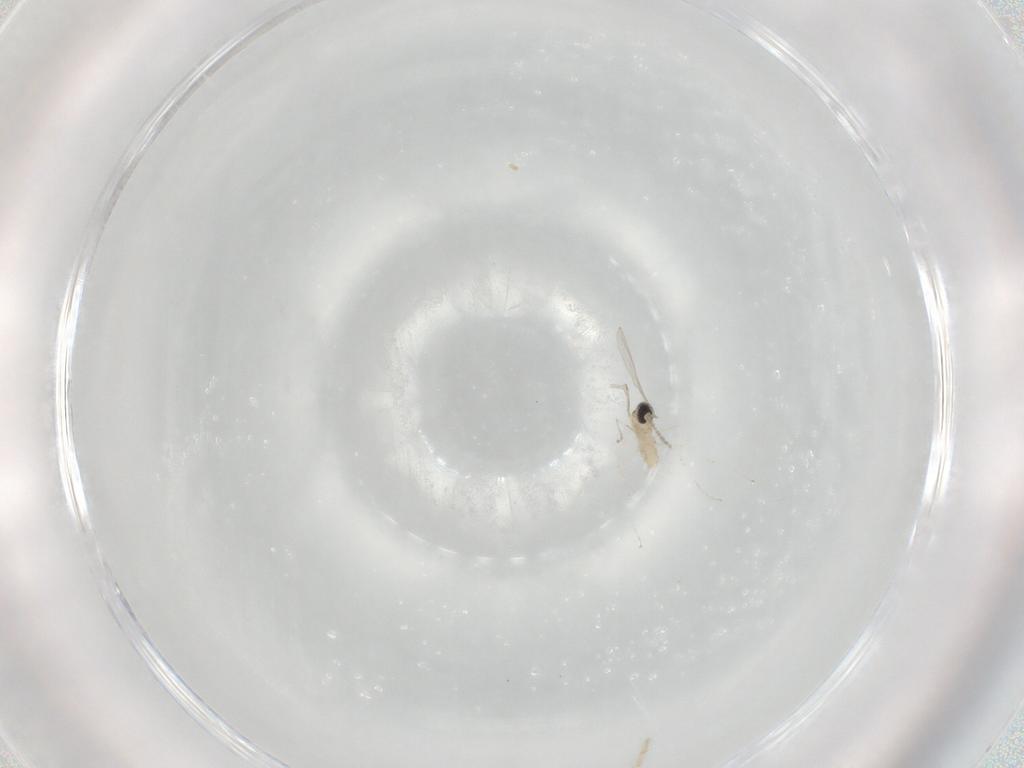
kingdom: Animalia
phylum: Arthropoda
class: Insecta
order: Diptera
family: Cecidomyiidae
